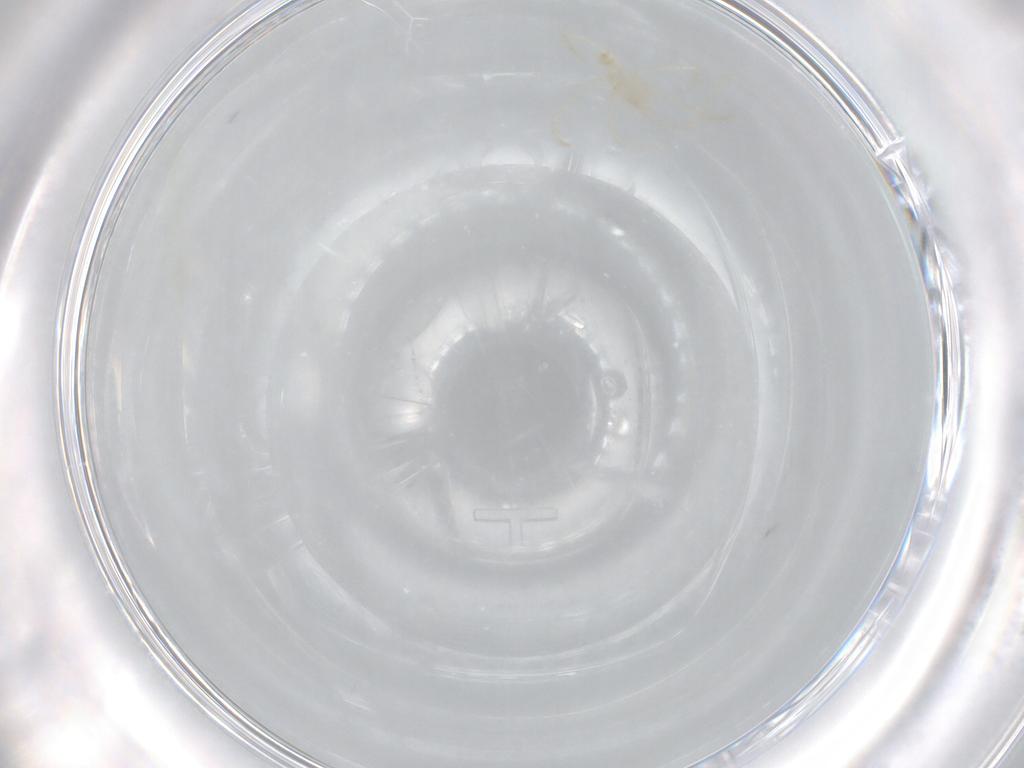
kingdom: Animalia
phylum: Arthropoda
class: Arachnida
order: Trombidiformes
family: Erythraeidae
